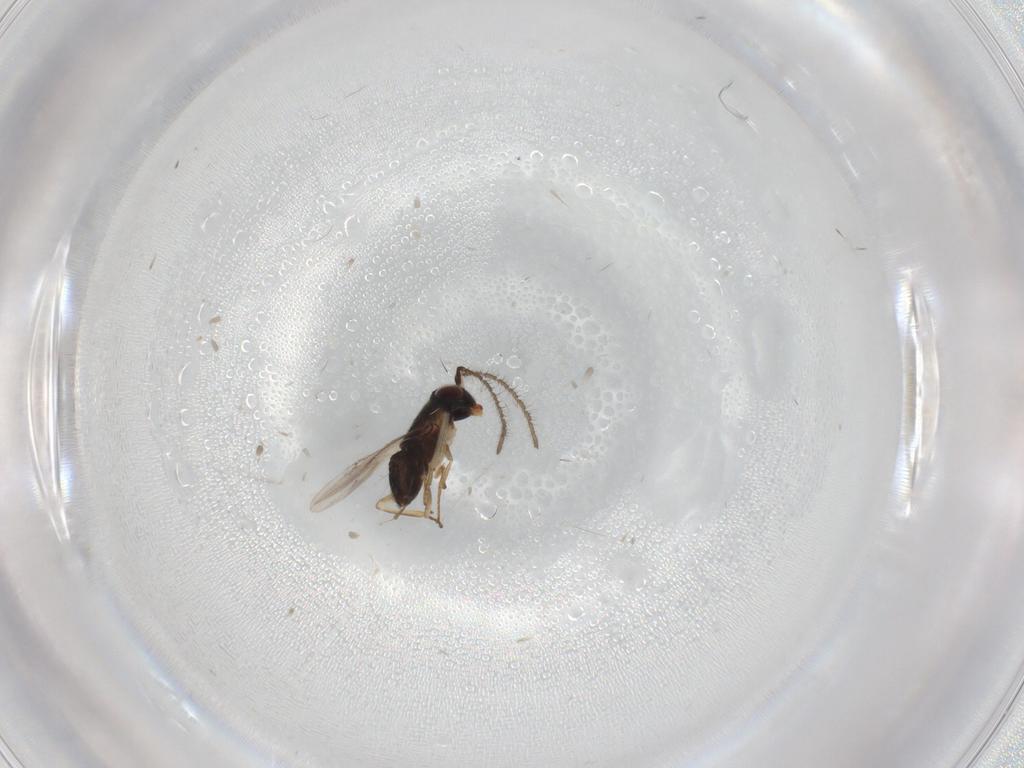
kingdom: Animalia
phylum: Arthropoda
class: Insecta
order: Hymenoptera
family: Encyrtidae
